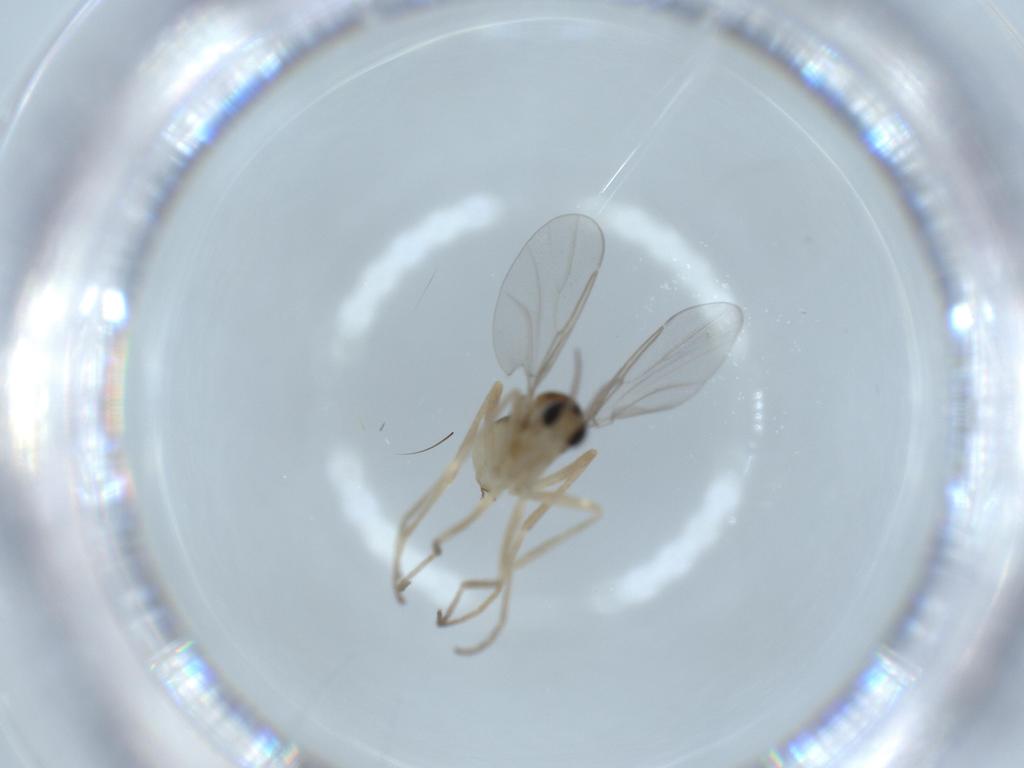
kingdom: Animalia
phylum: Arthropoda
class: Insecta
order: Diptera
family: Cecidomyiidae
